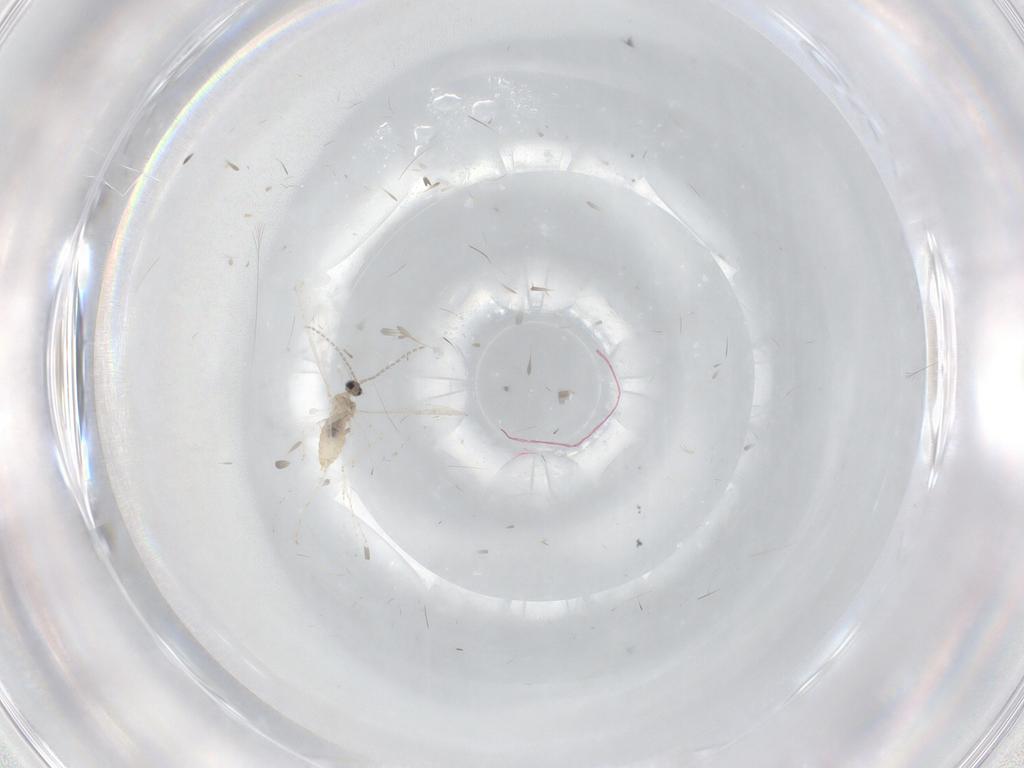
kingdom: Animalia
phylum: Arthropoda
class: Insecta
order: Diptera
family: Cecidomyiidae
